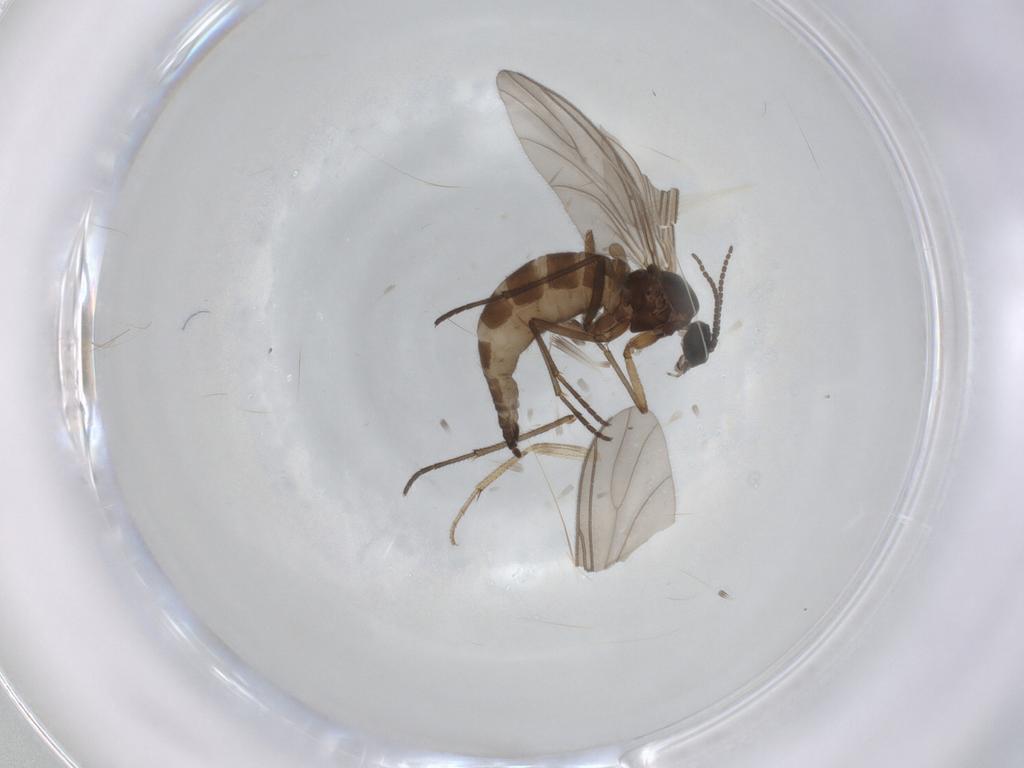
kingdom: Animalia
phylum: Arthropoda
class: Insecta
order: Diptera
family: Sciaridae
